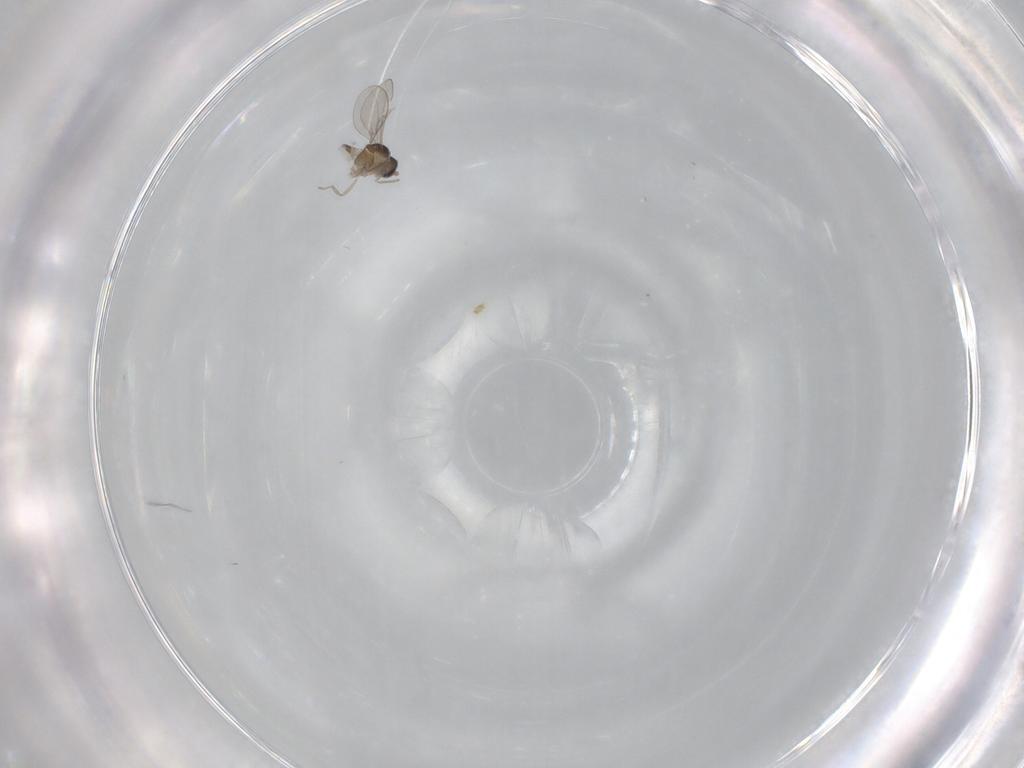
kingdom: Animalia
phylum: Arthropoda
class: Insecta
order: Diptera
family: Cecidomyiidae
